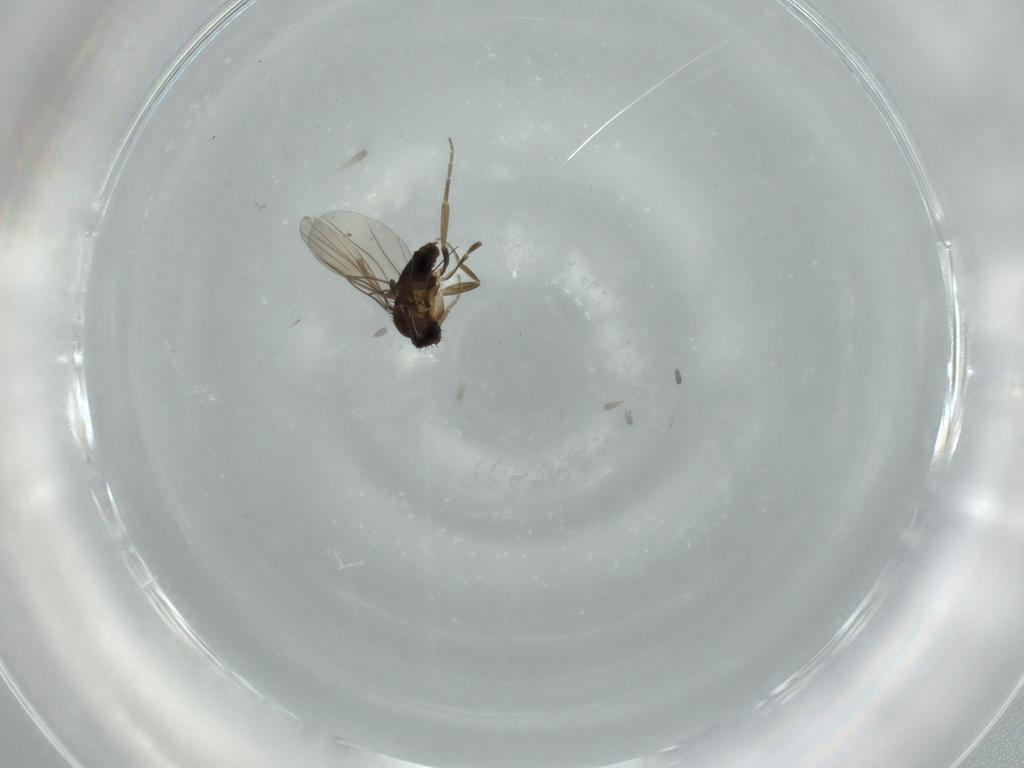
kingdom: Animalia
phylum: Arthropoda
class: Insecta
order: Diptera
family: Phoridae
